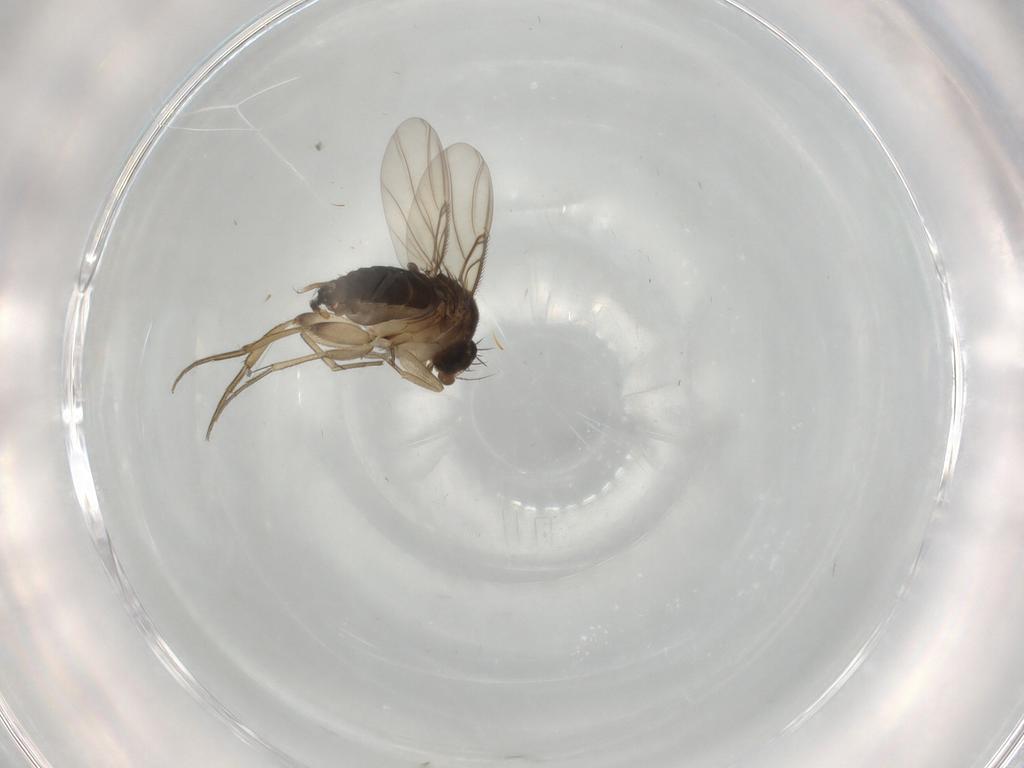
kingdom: Animalia
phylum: Arthropoda
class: Insecta
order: Diptera
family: Phoridae
